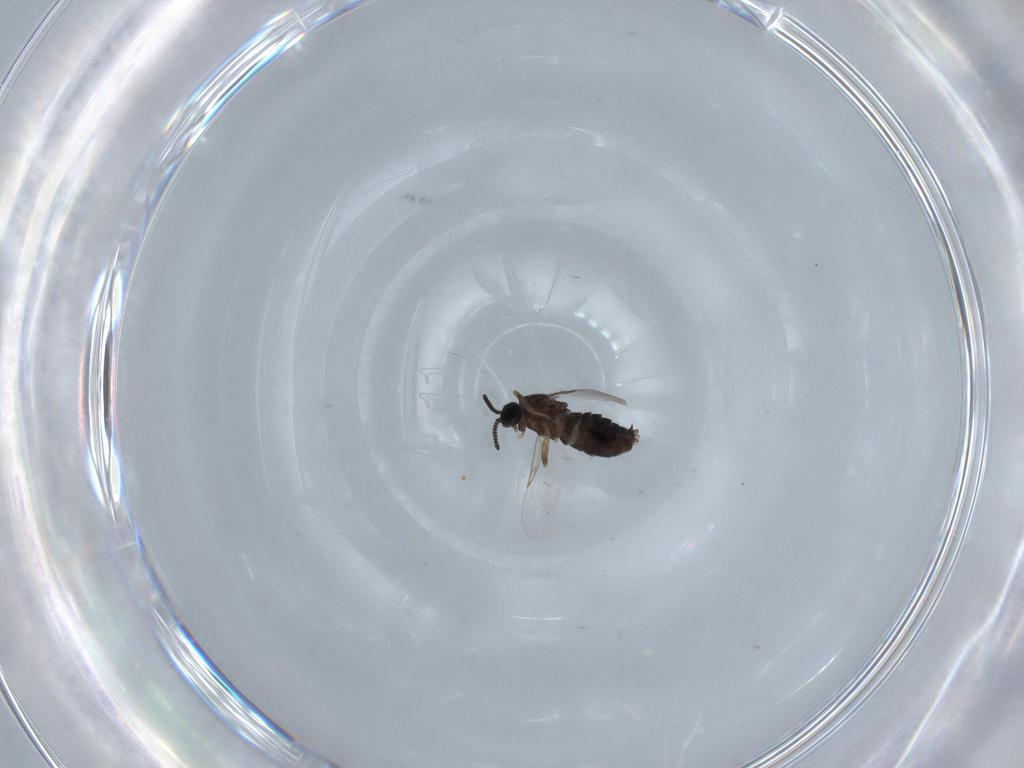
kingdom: Animalia
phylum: Arthropoda
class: Insecta
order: Diptera
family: Scatopsidae
